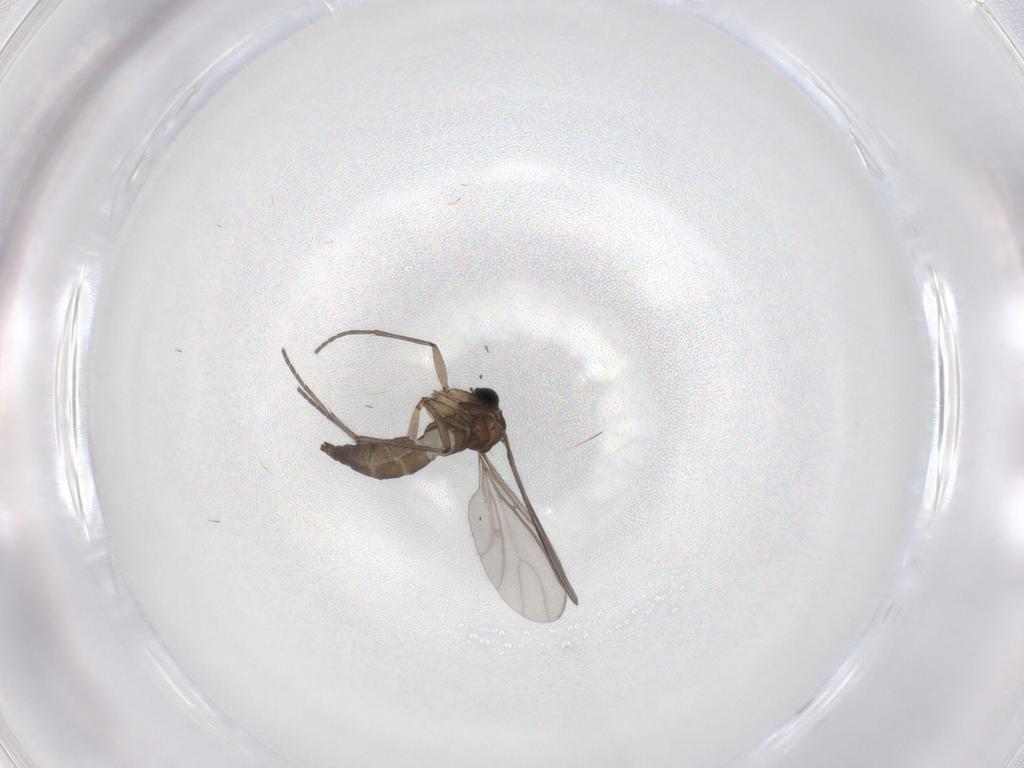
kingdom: Animalia
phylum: Arthropoda
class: Insecta
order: Diptera
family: Sciaridae
